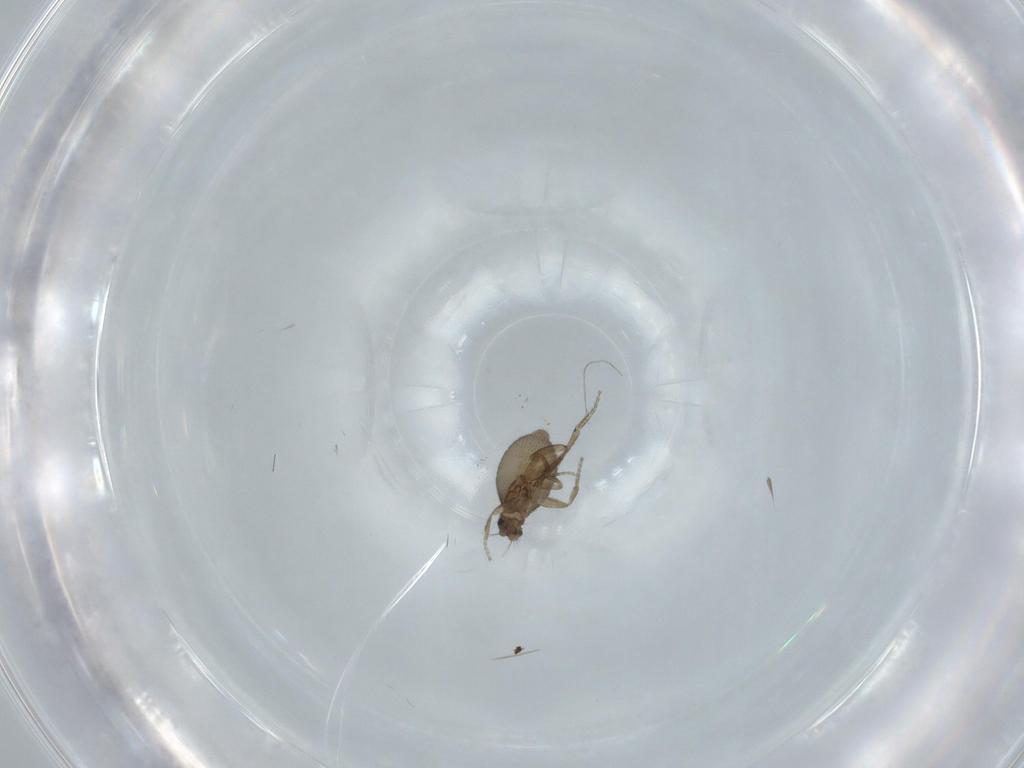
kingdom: Animalia
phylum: Arthropoda
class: Insecta
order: Diptera
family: Phoridae
